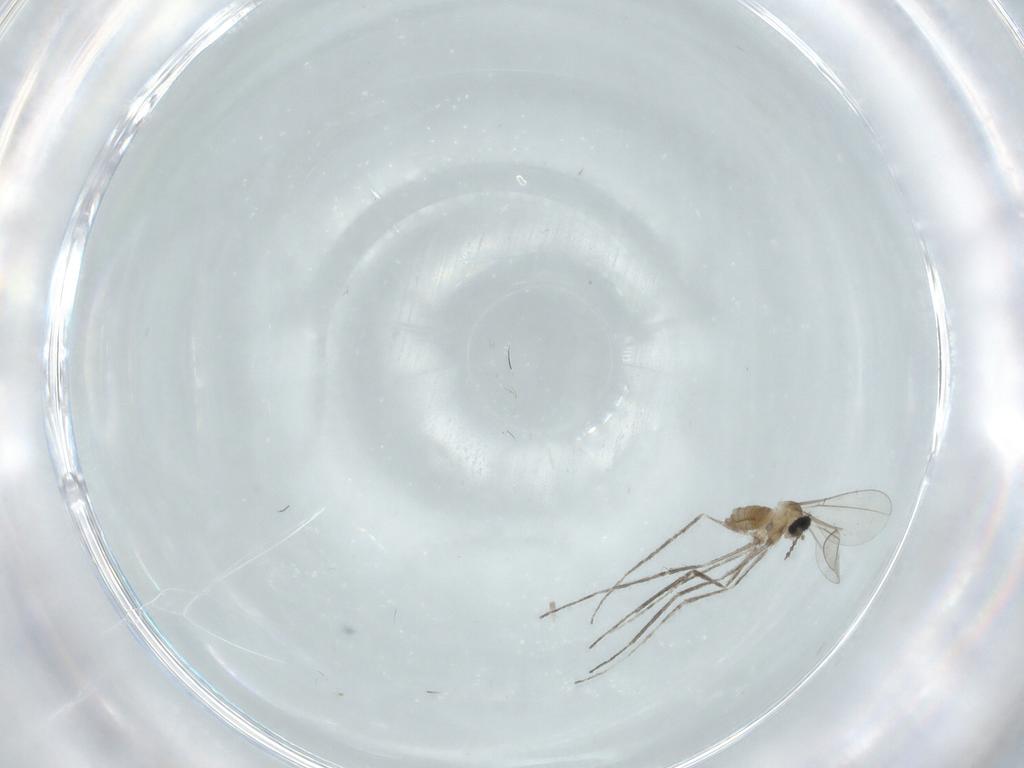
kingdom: Animalia
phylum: Arthropoda
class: Insecta
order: Diptera
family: Cecidomyiidae
